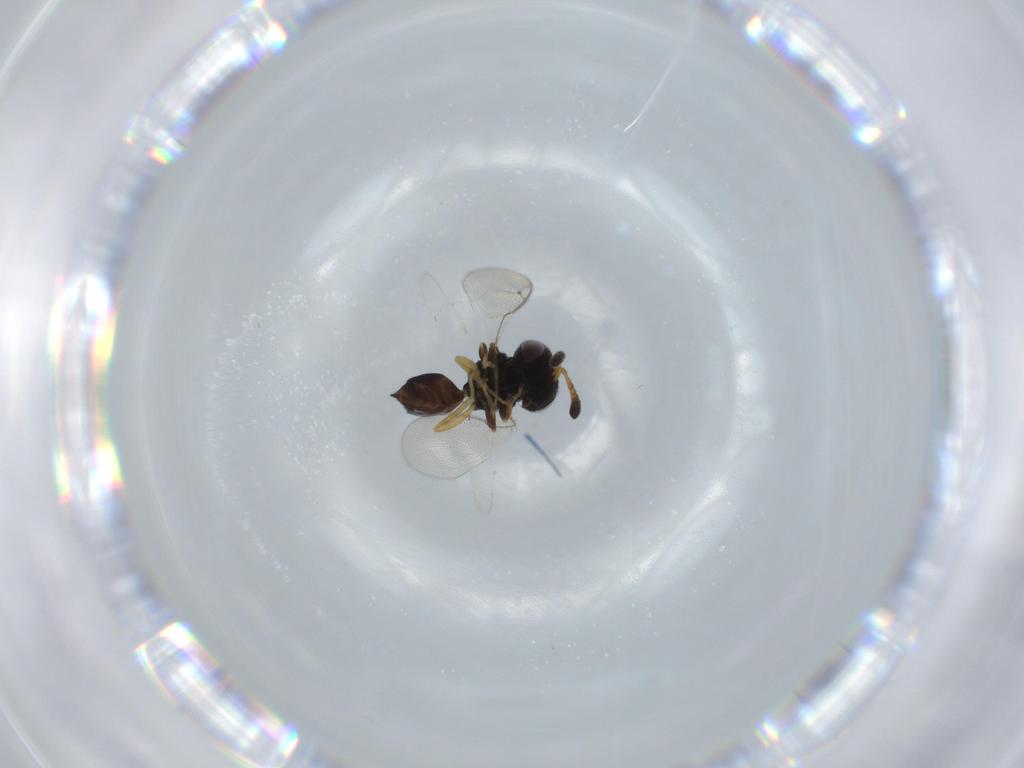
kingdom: Animalia
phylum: Arthropoda
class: Insecta
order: Hymenoptera
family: Pteromalidae
